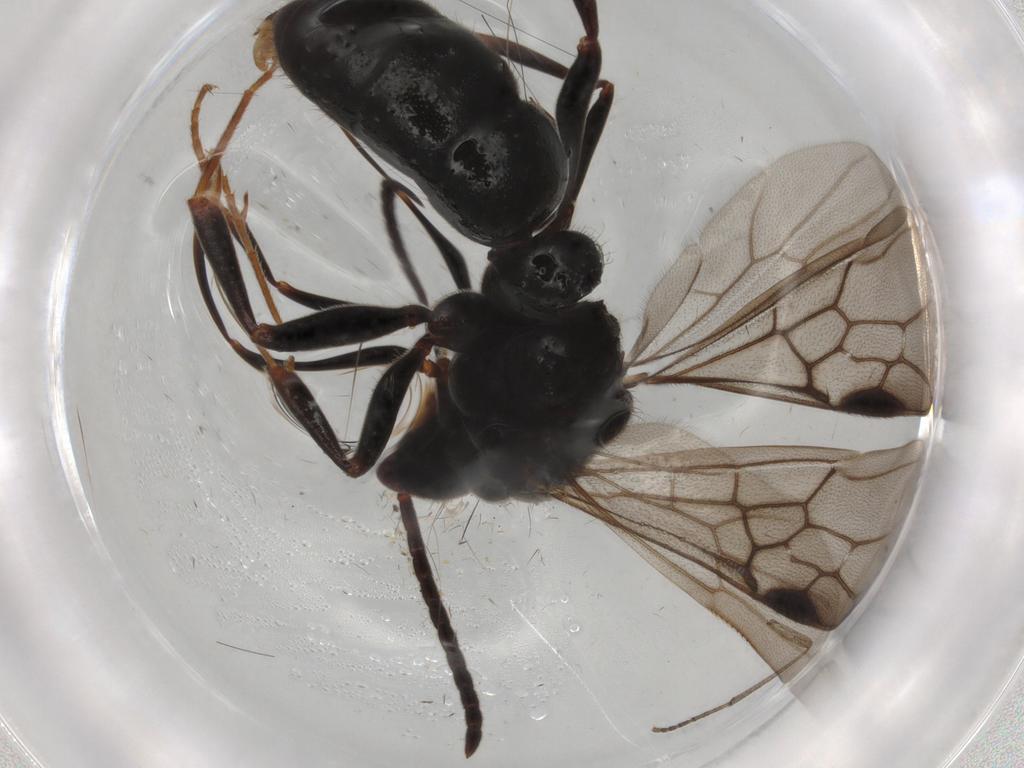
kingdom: Animalia
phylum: Arthropoda
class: Insecta
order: Hymenoptera
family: Formicidae
